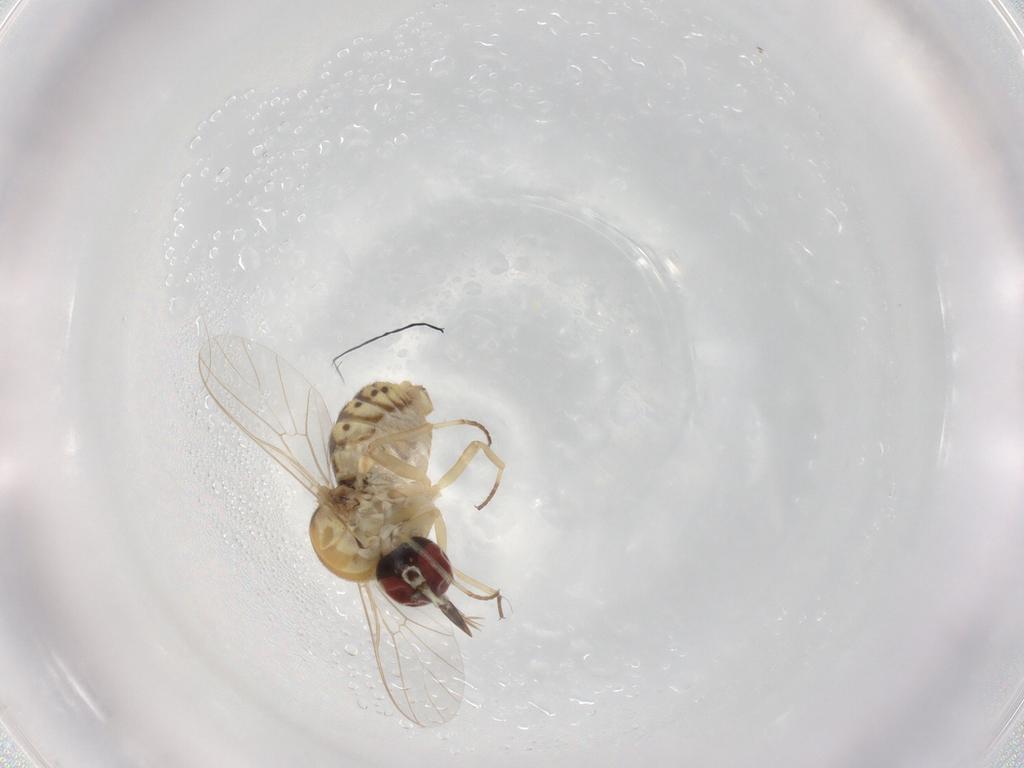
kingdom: Animalia
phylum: Arthropoda
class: Insecta
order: Diptera
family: Bombyliidae
